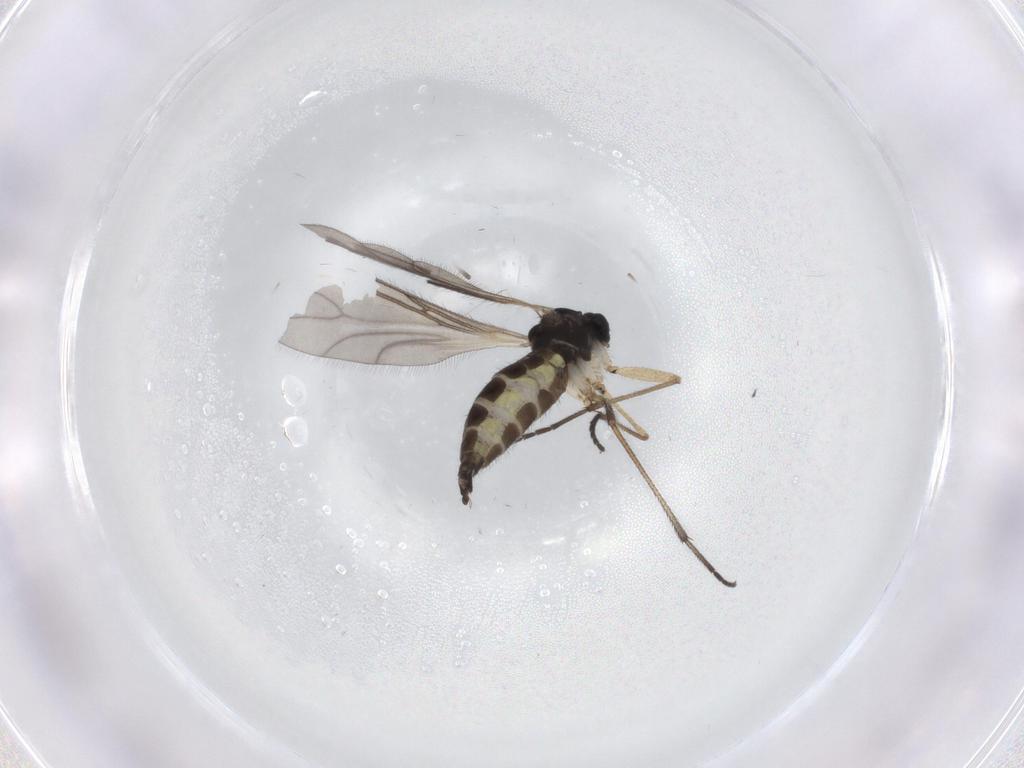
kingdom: Animalia
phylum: Arthropoda
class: Insecta
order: Diptera
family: Sciaridae
